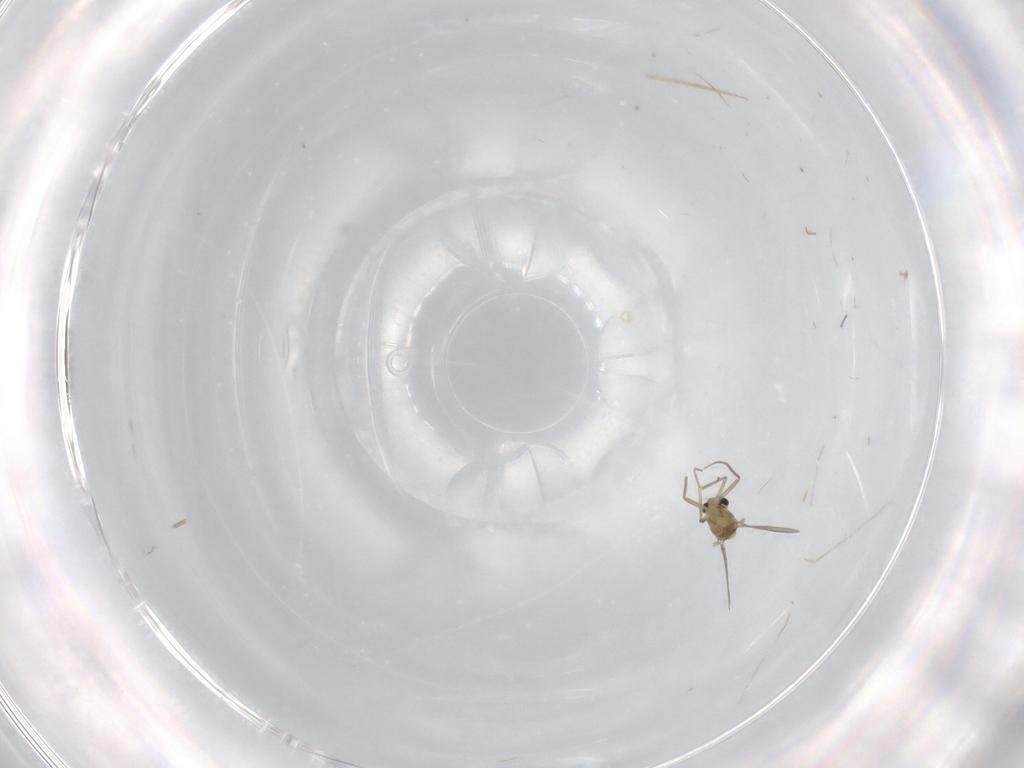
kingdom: Animalia
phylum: Arthropoda
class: Insecta
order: Diptera
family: Chironomidae
